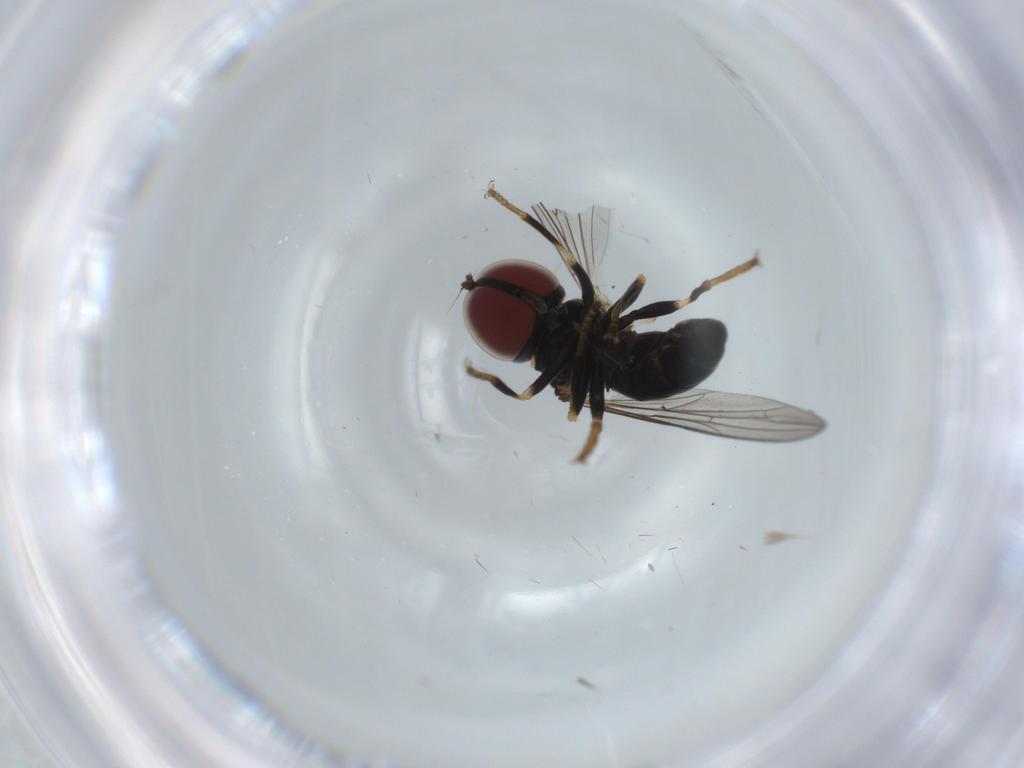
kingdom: Animalia
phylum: Arthropoda
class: Insecta
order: Diptera
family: Pipunculidae
